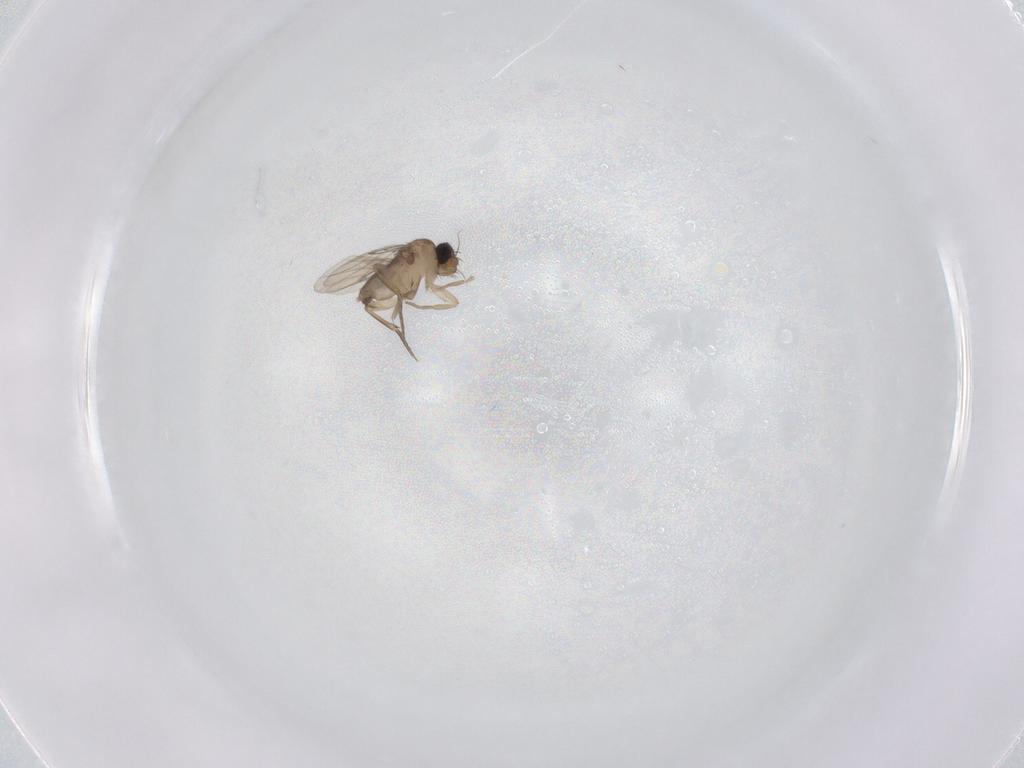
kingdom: Animalia
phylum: Arthropoda
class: Insecta
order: Diptera
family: Phoridae
